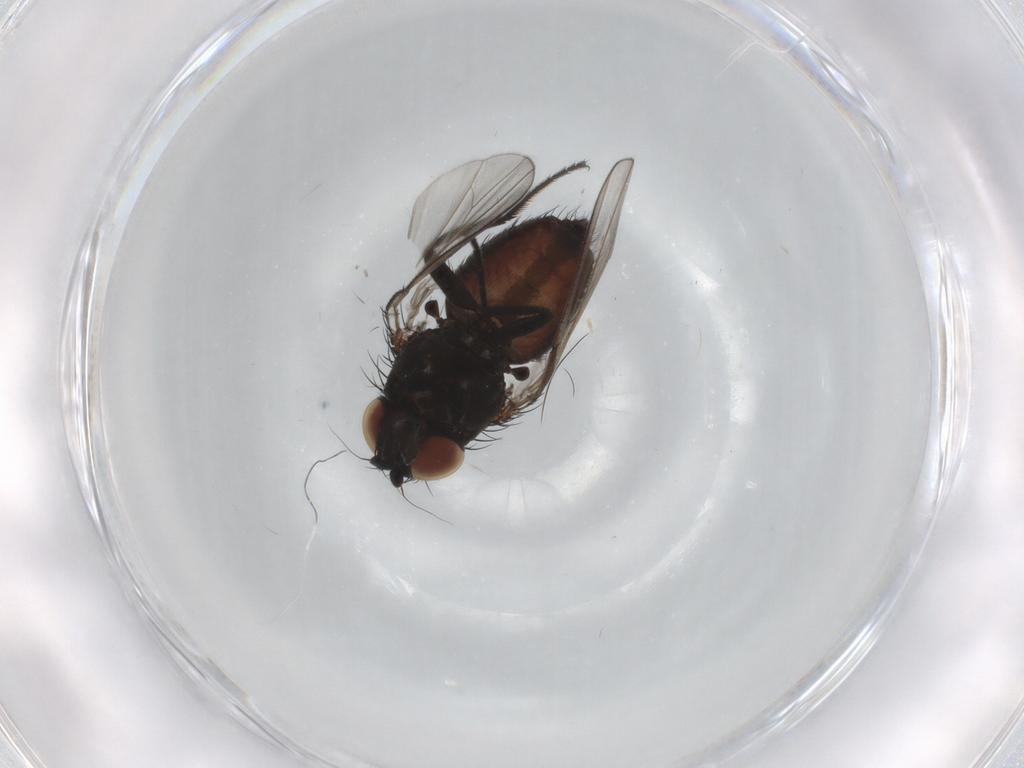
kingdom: Animalia
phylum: Arthropoda
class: Insecta
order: Diptera
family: Milichiidae
